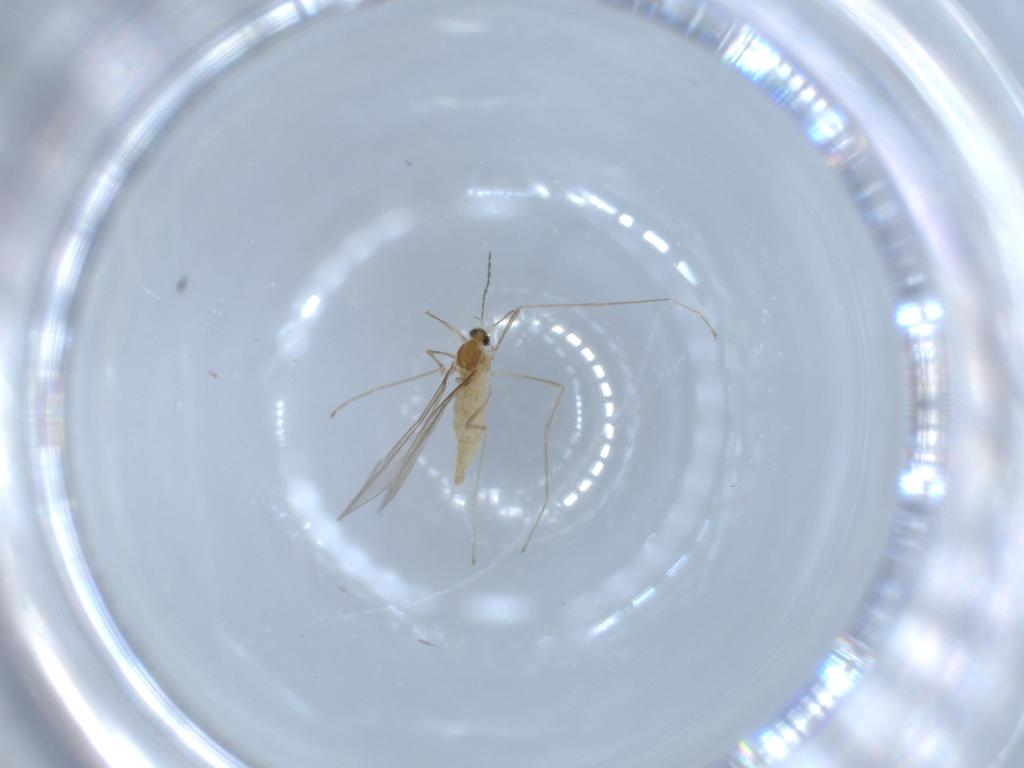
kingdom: Animalia
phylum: Arthropoda
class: Insecta
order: Diptera
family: Cecidomyiidae
